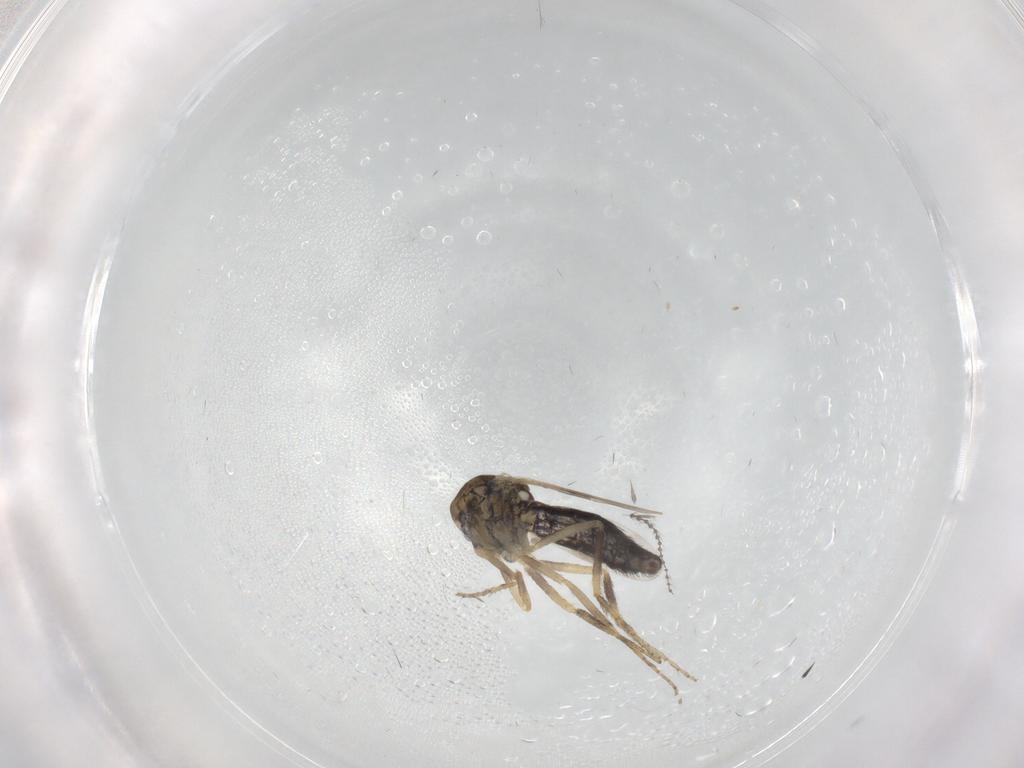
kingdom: Animalia
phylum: Arthropoda
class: Insecta
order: Diptera
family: Ceratopogonidae
